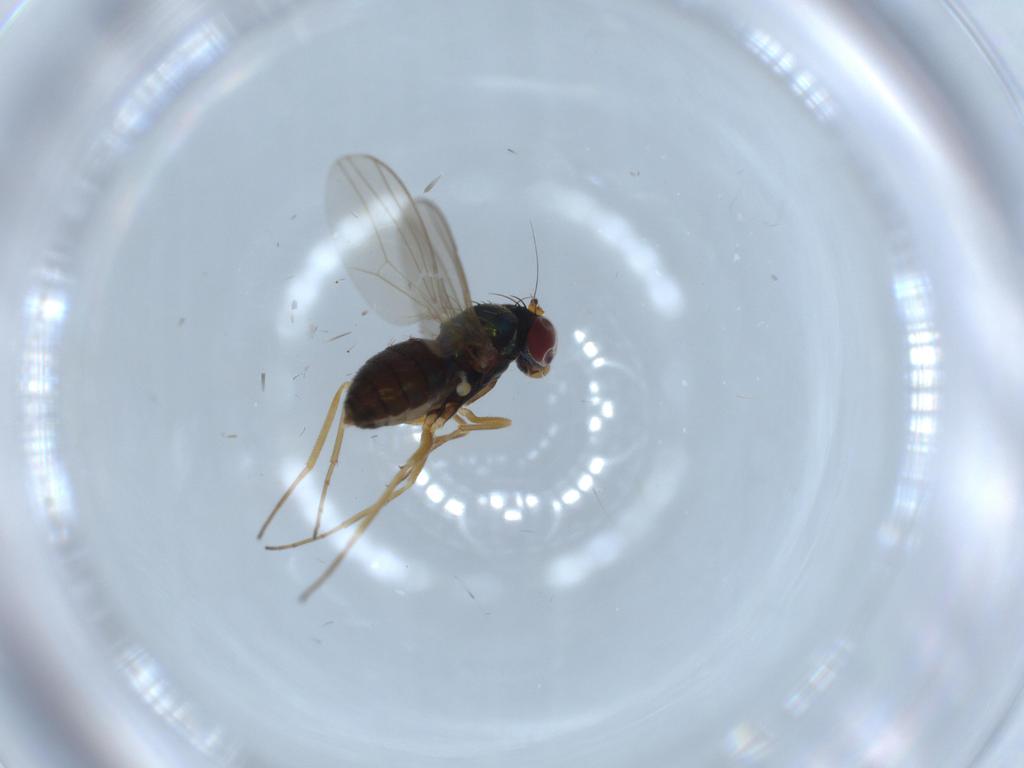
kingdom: Animalia
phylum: Arthropoda
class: Insecta
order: Diptera
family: Dolichopodidae
